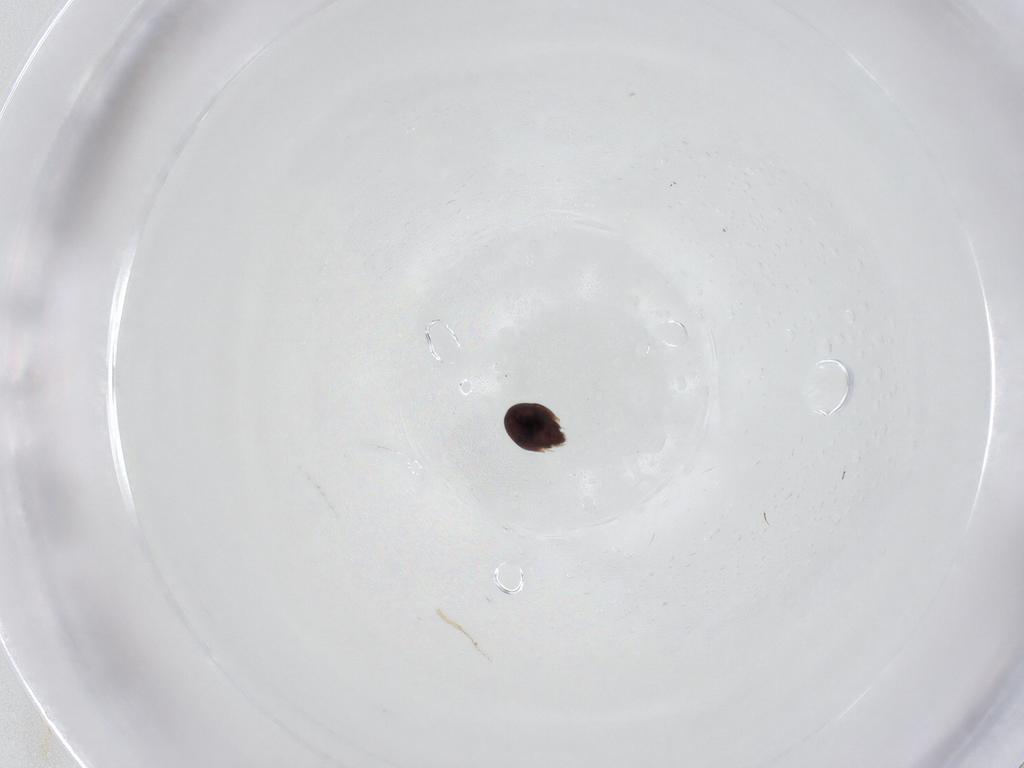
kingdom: Animalia
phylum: Arthropoda
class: Arachnida
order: Sarcoptiformes
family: Achipteriidae
